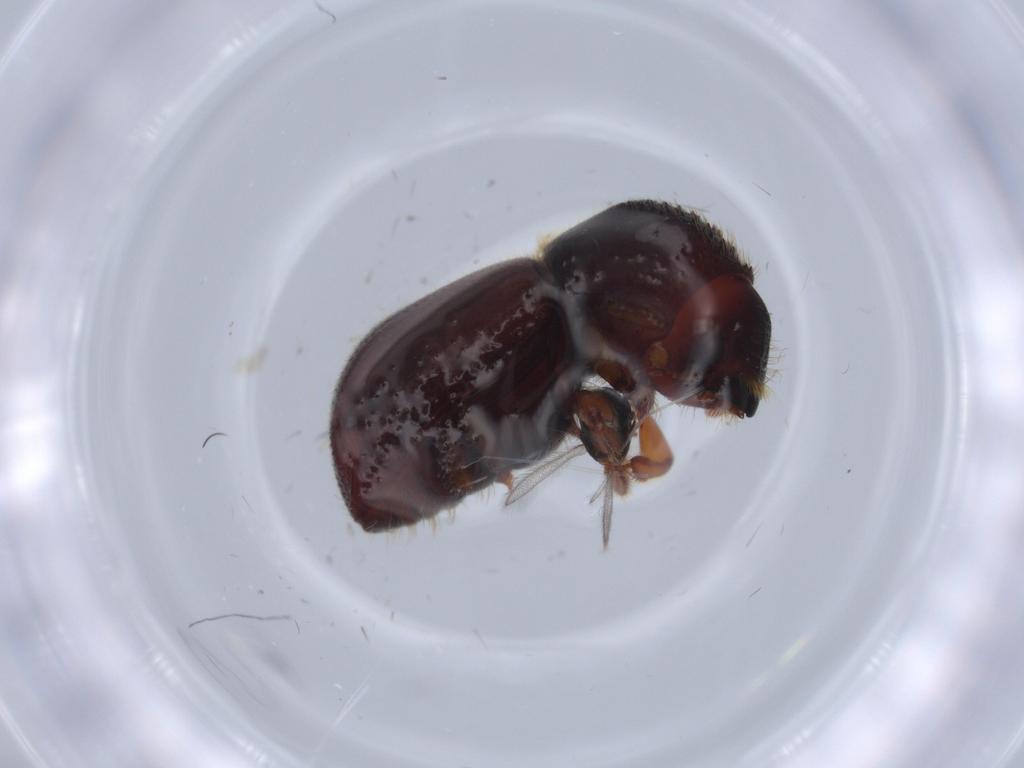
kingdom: Animalia
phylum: Arthropoda
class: Insecta
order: Coleoptera
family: Curculionidae
